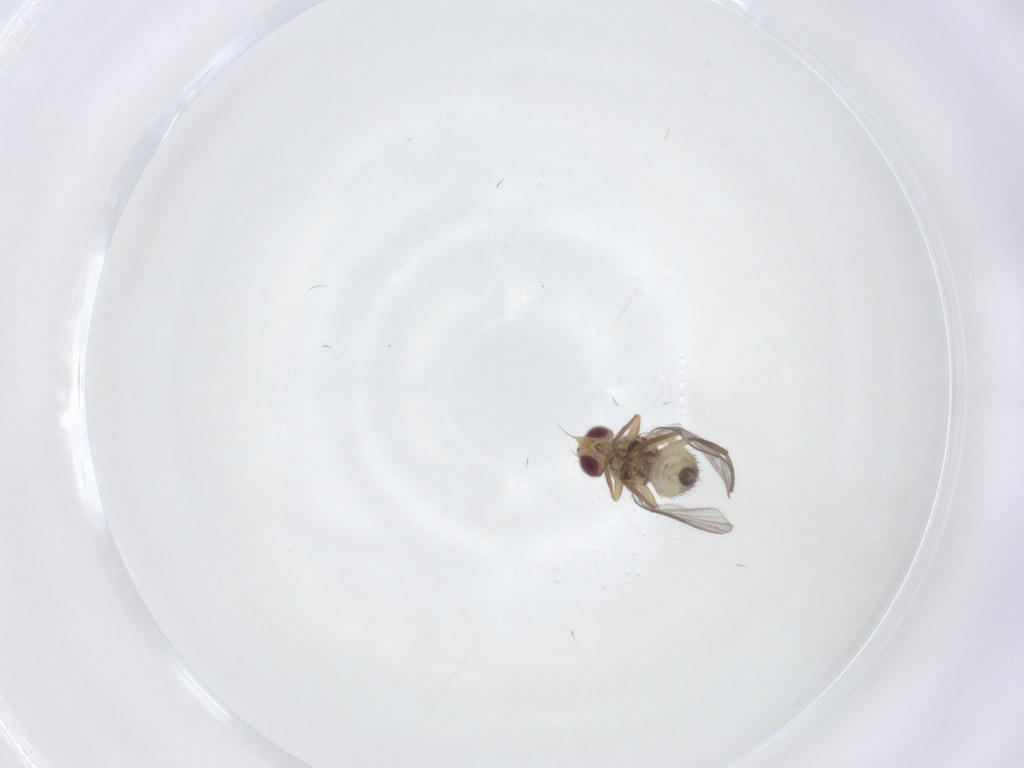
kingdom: Animalia
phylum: Arthropoda
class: Insecta
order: Diptera
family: Agromyzidae
